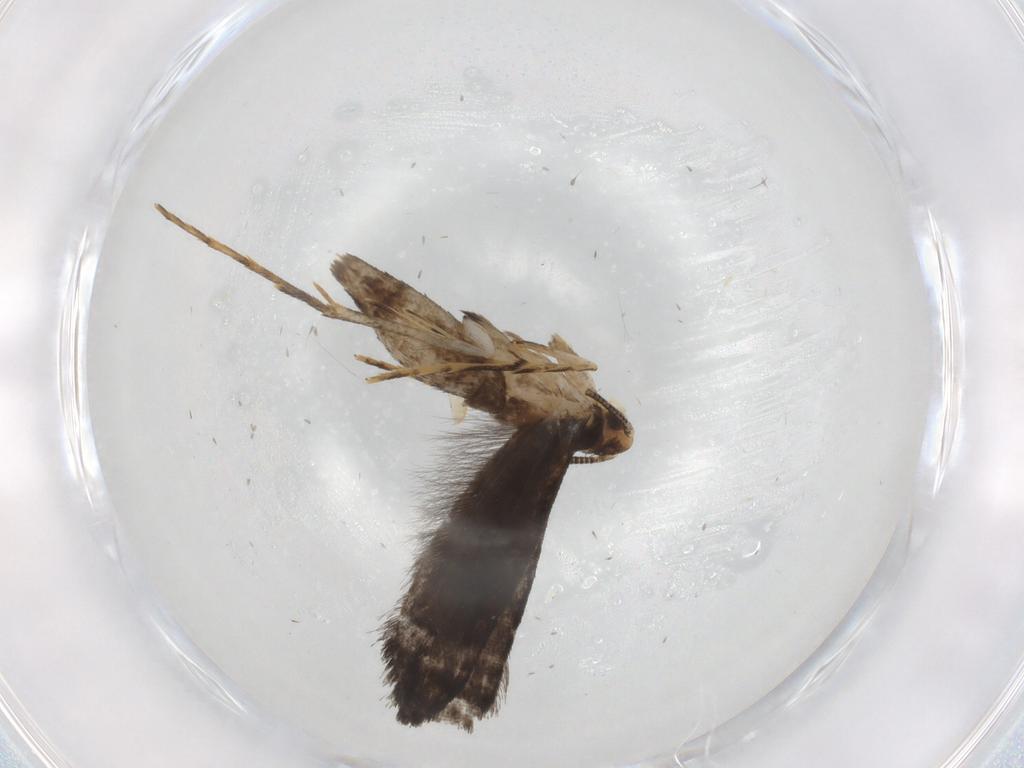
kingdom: Animalia
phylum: Arthropoda
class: Insecta
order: Lepidoptera
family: Tineidae
